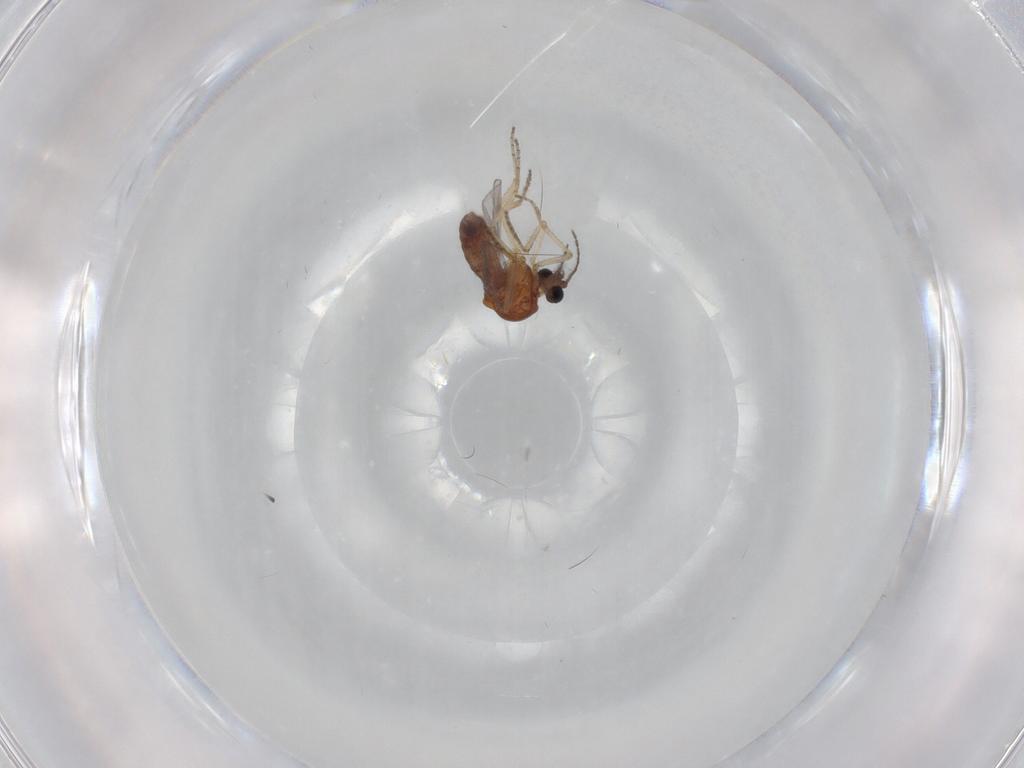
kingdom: Animalia
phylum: Arthropoda
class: Insecta
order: Diptera
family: Ceratopogonidae
